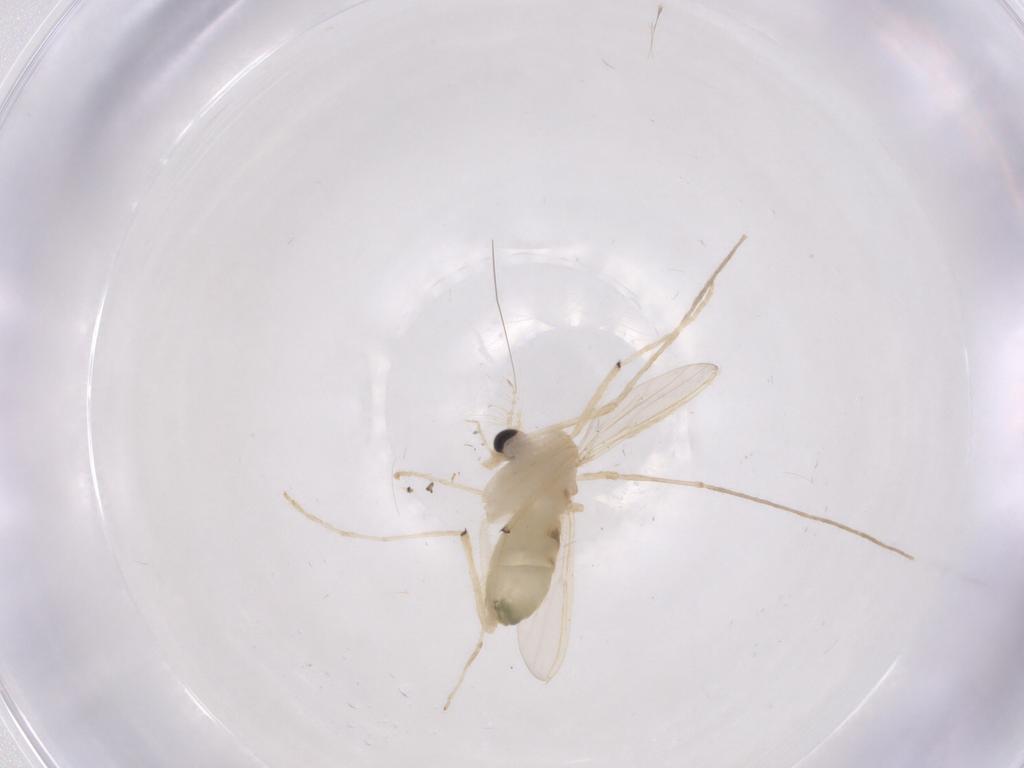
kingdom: Animalia
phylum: Arthropoda
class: Insecta
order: Diptera
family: Chironomidae
